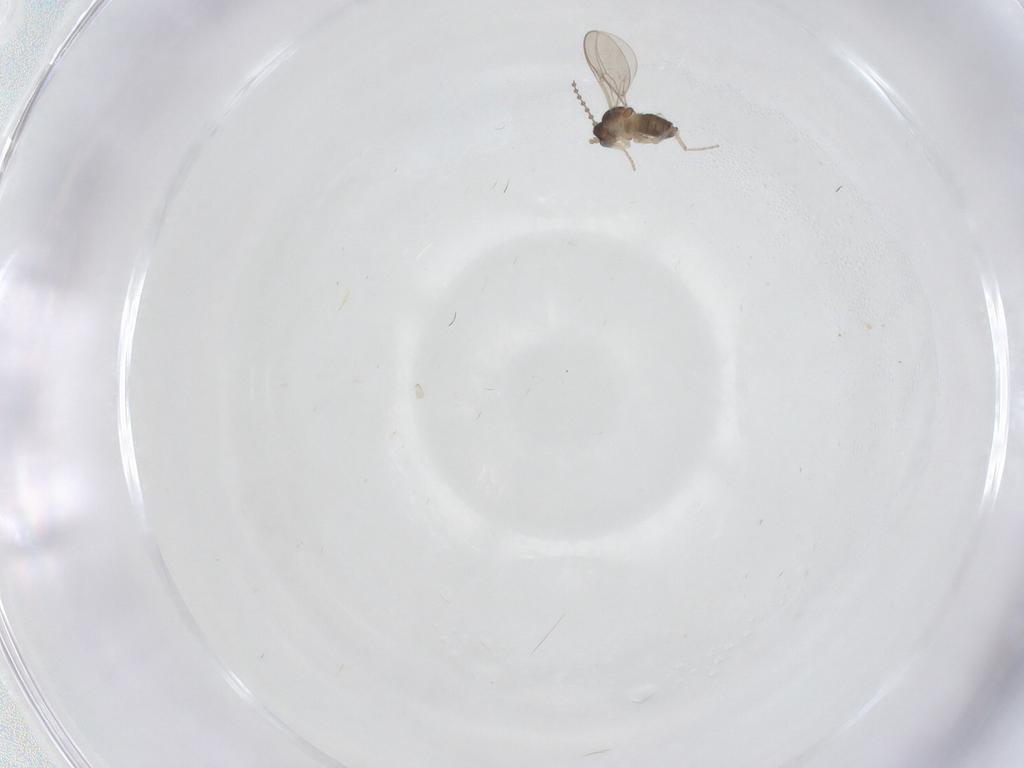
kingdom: Animalia
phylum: Arthropoda
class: Insecta
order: Diptera
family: Cecidomyiidae
